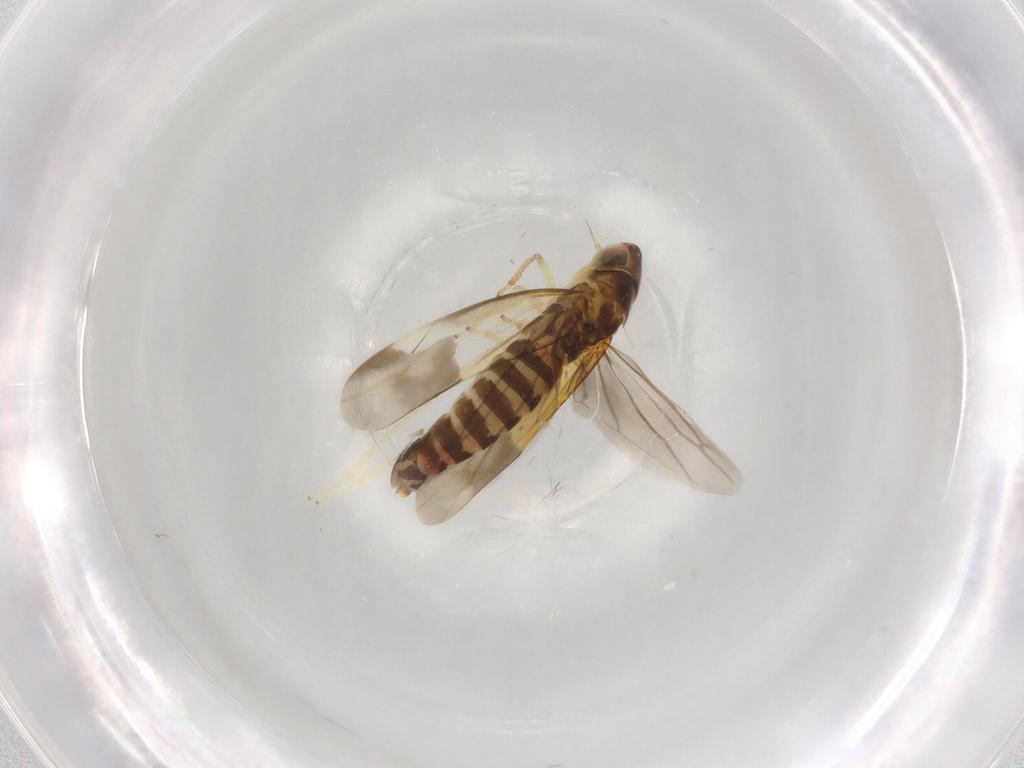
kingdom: Animalia
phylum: Arthropoda
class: Insecta
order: Hemiptera
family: Cicadellidae
